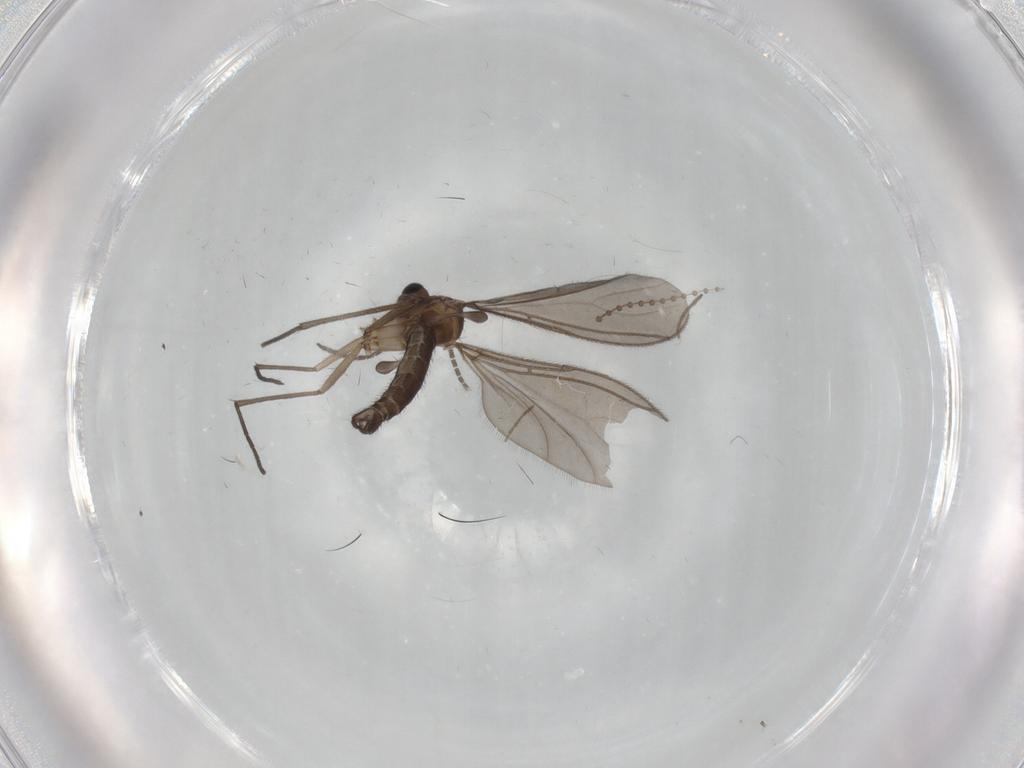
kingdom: Animalia
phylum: Arthropoda
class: Insecta
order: Diptera
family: Sciaridae
